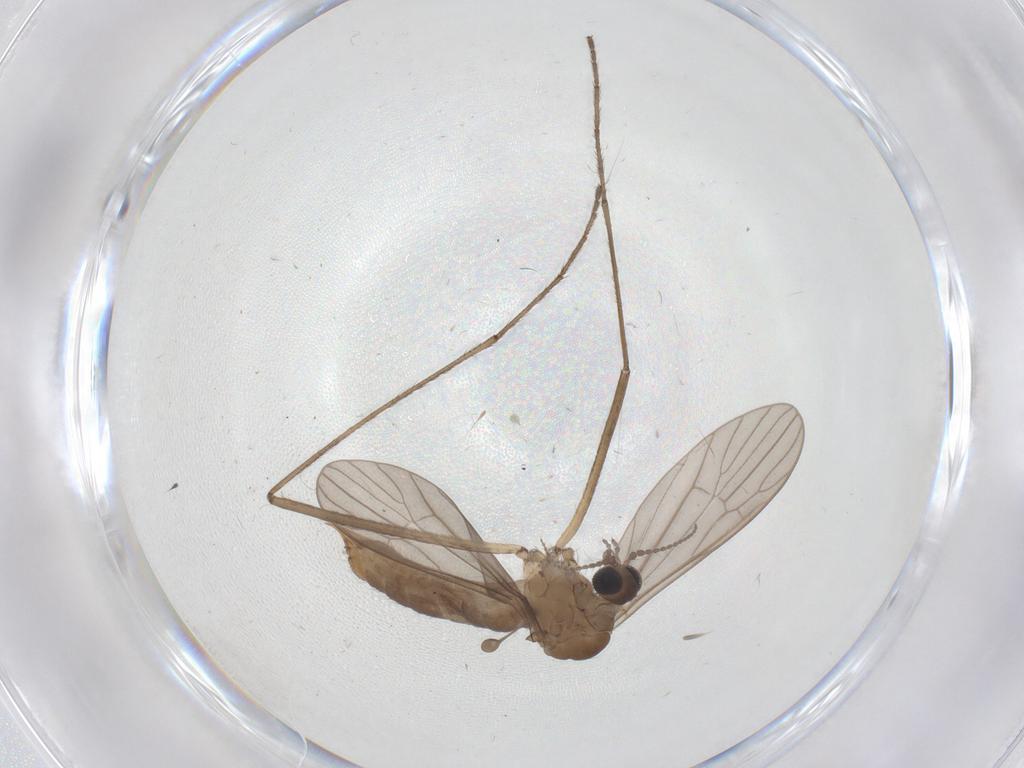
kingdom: Animalia
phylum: Arthropoda
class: Insecta
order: Diptera
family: Limoniidae
